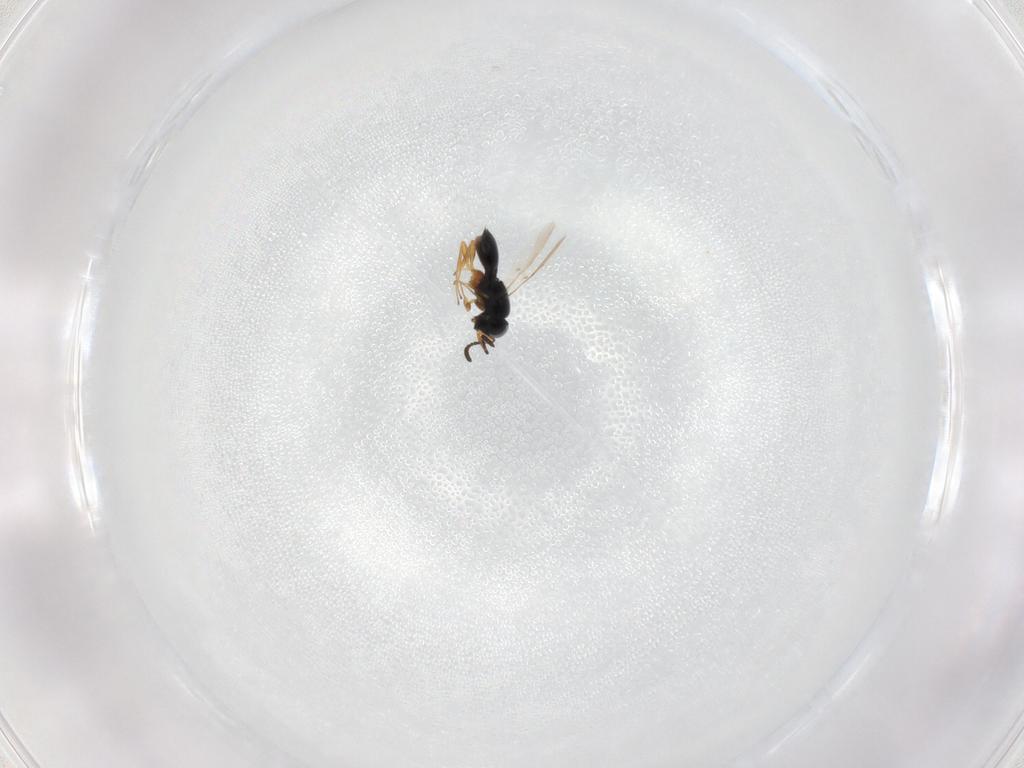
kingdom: Animalia
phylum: Arthropoda
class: Insecta
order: Hymenoptera
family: Scelionidae
